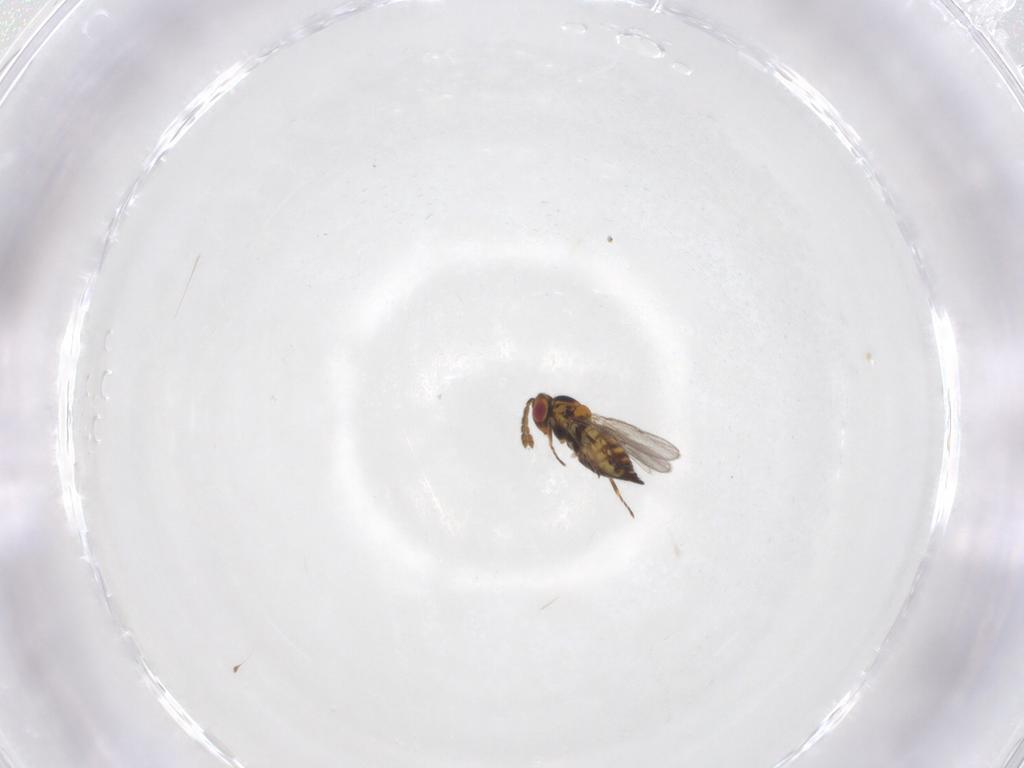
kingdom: Animalia
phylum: Arthropoda
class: Insecta
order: Hymenoptera
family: Eulophidae
